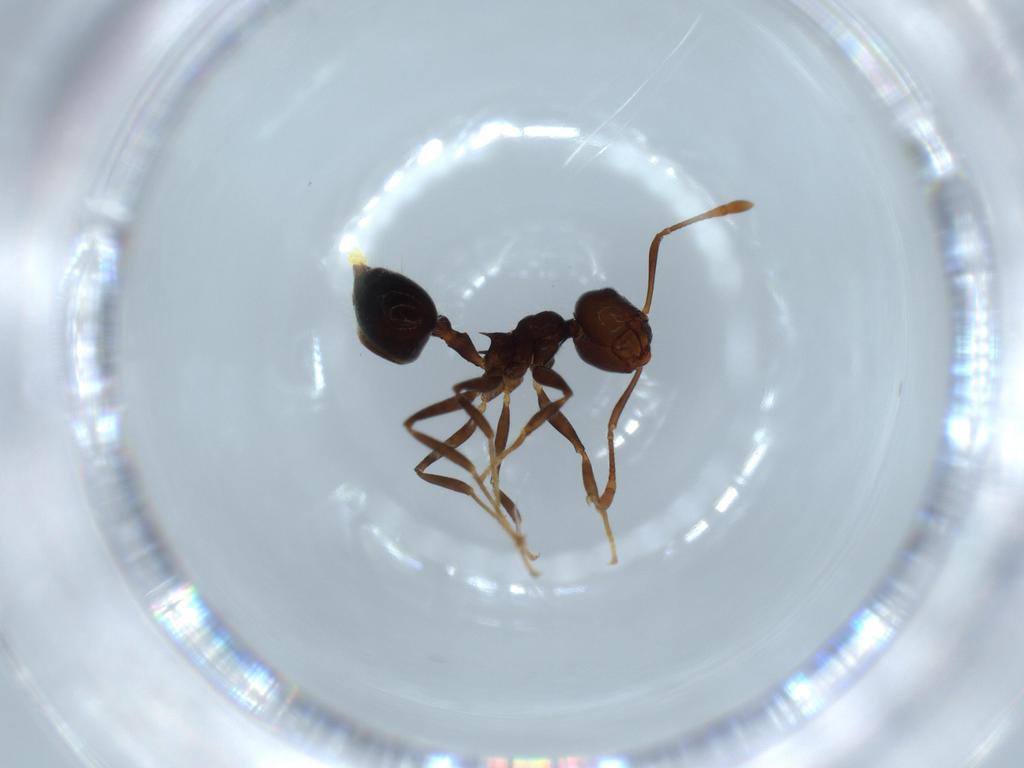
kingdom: Animalia
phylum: Arthropoda
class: Insecta
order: Hymenoptera
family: Formicidae
